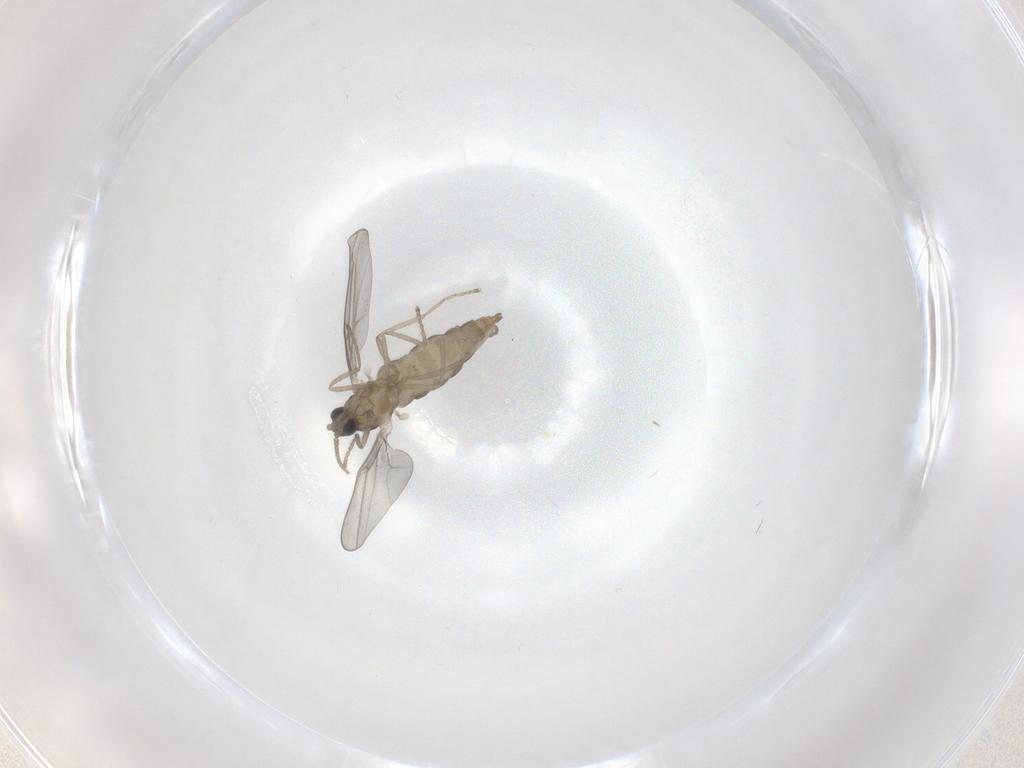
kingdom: Animalia
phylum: Arthropoda
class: Insecta
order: Diptera
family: Cecidomyiidae
